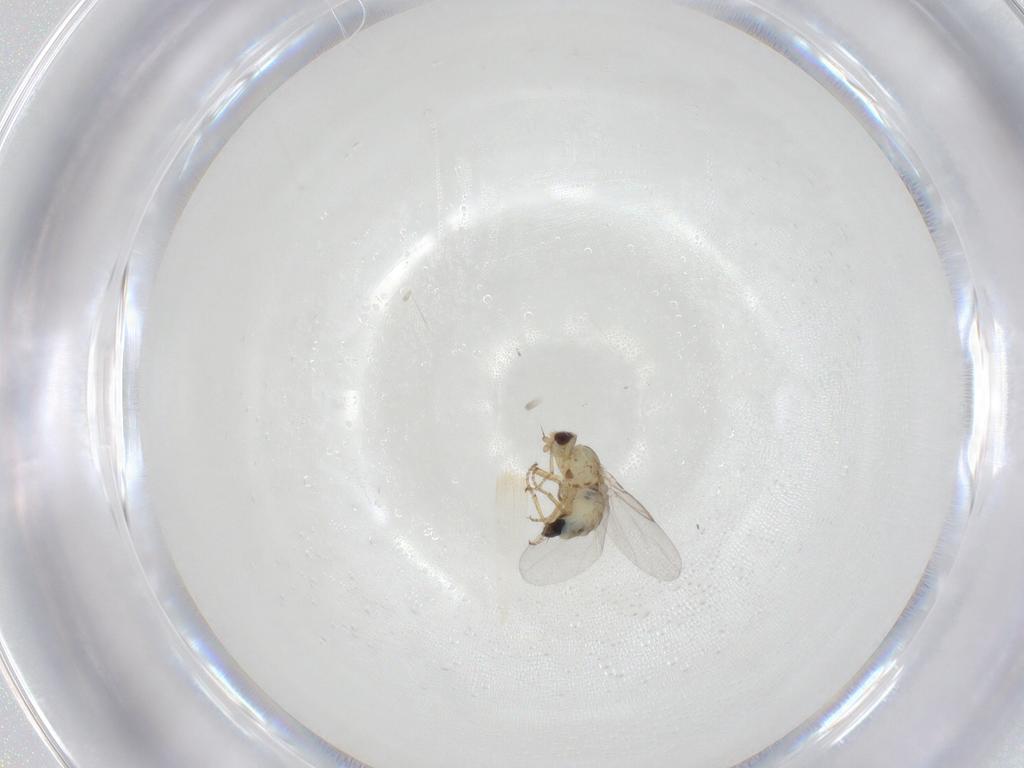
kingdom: Animalia
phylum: Arthropoda
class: Insecta
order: Diptera
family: Agromyzidae
